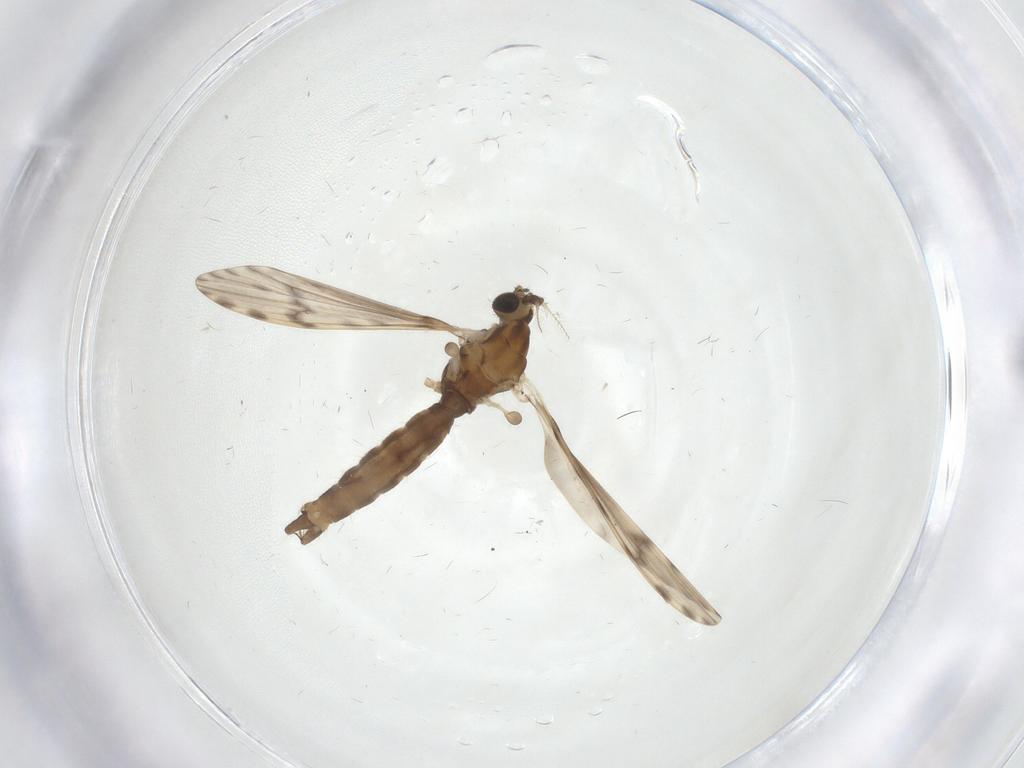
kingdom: Animalia
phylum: Arthropoda
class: Insecta
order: Diptera
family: Limoniidae
